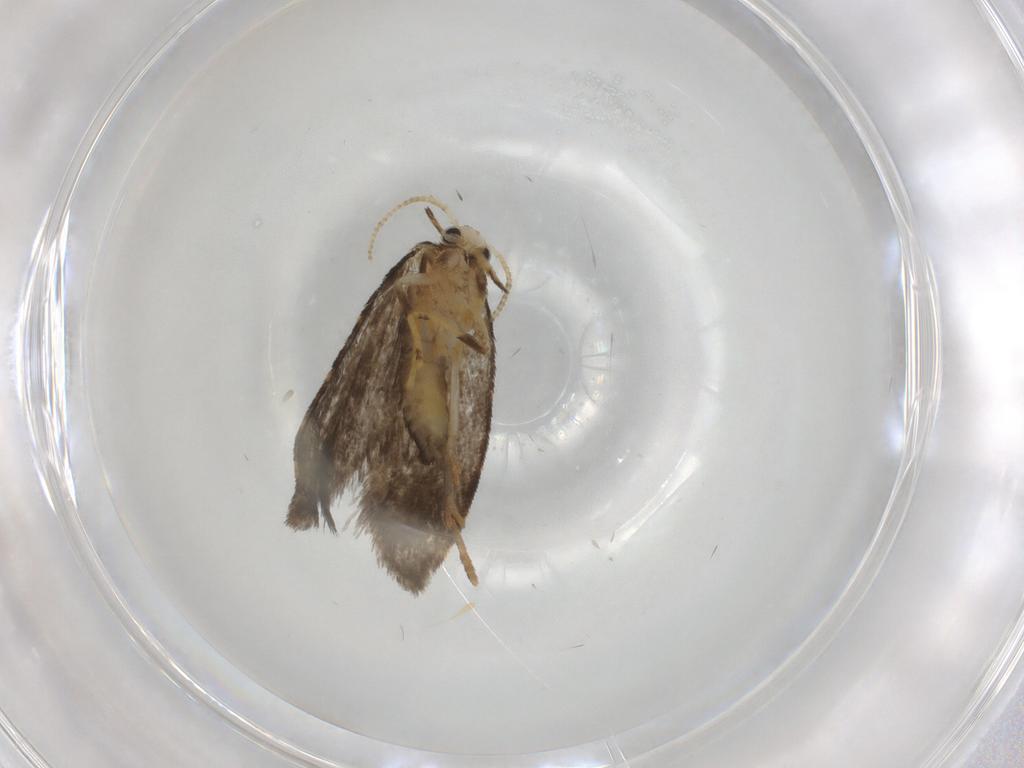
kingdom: Animalia
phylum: Arthropoda
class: Insecta
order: Lepidoptera
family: Psychidae
